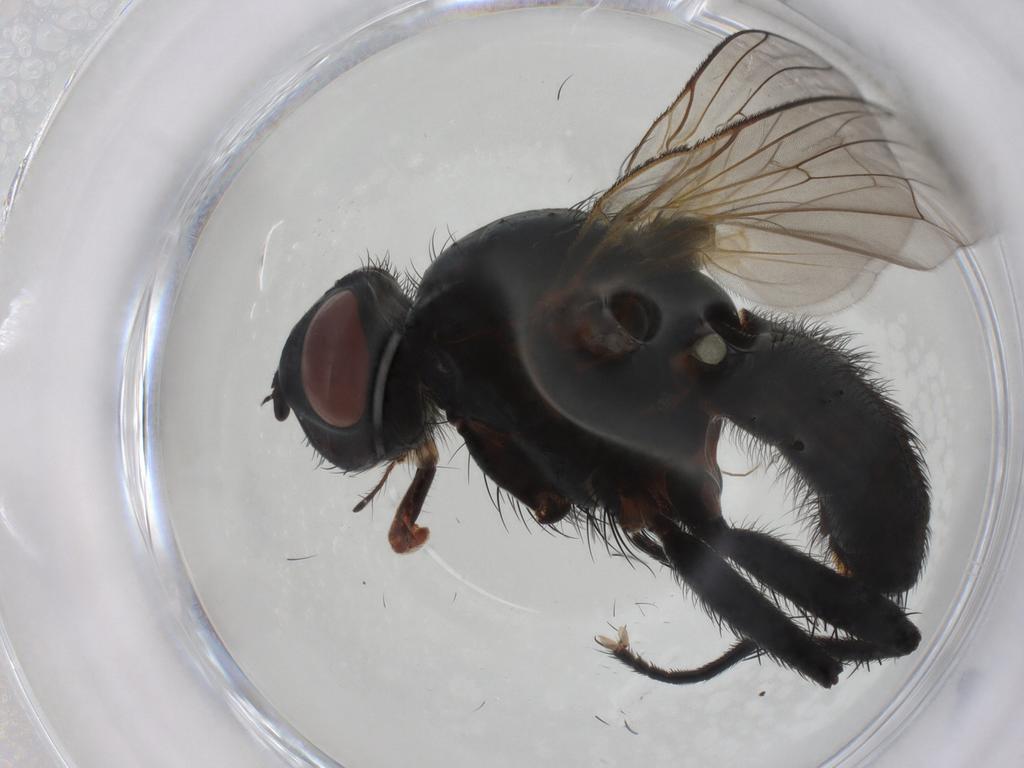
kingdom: Animalia
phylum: Arthropoda
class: Insecta
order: Diptera
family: Anthomyiidae
